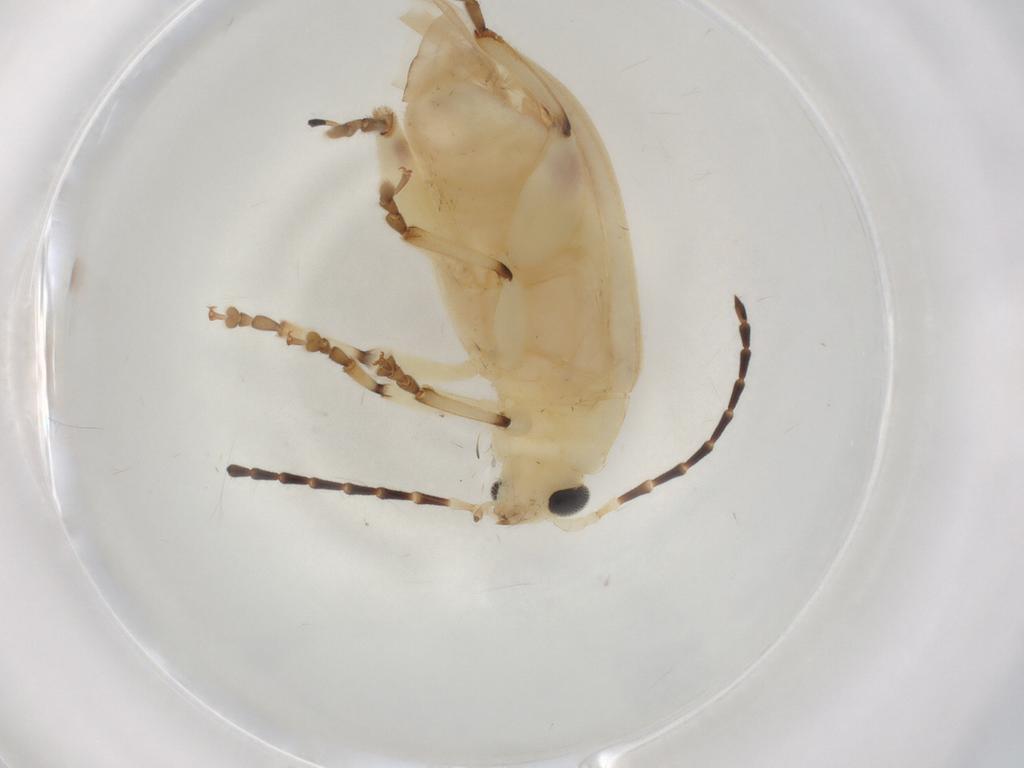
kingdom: Animalia
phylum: Arthropoda
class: Insecta
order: Coleoptera
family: Chrysomelidae
